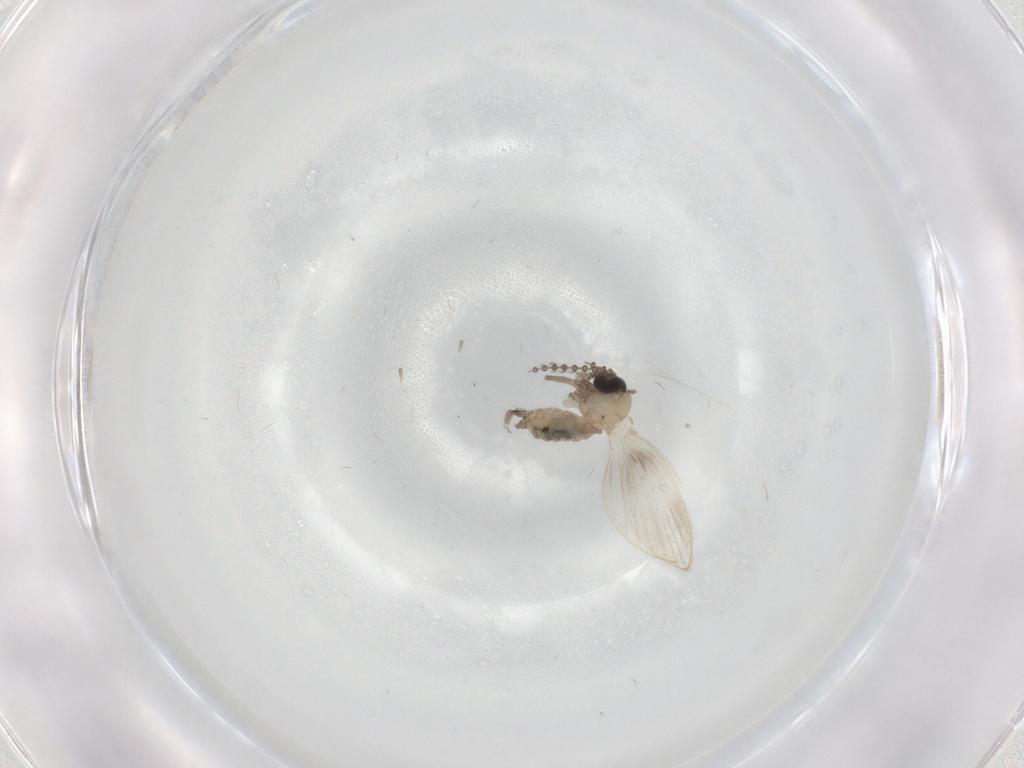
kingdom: Animalia
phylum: Arthropoda
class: Insecta
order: Diptera
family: Psychodidae
